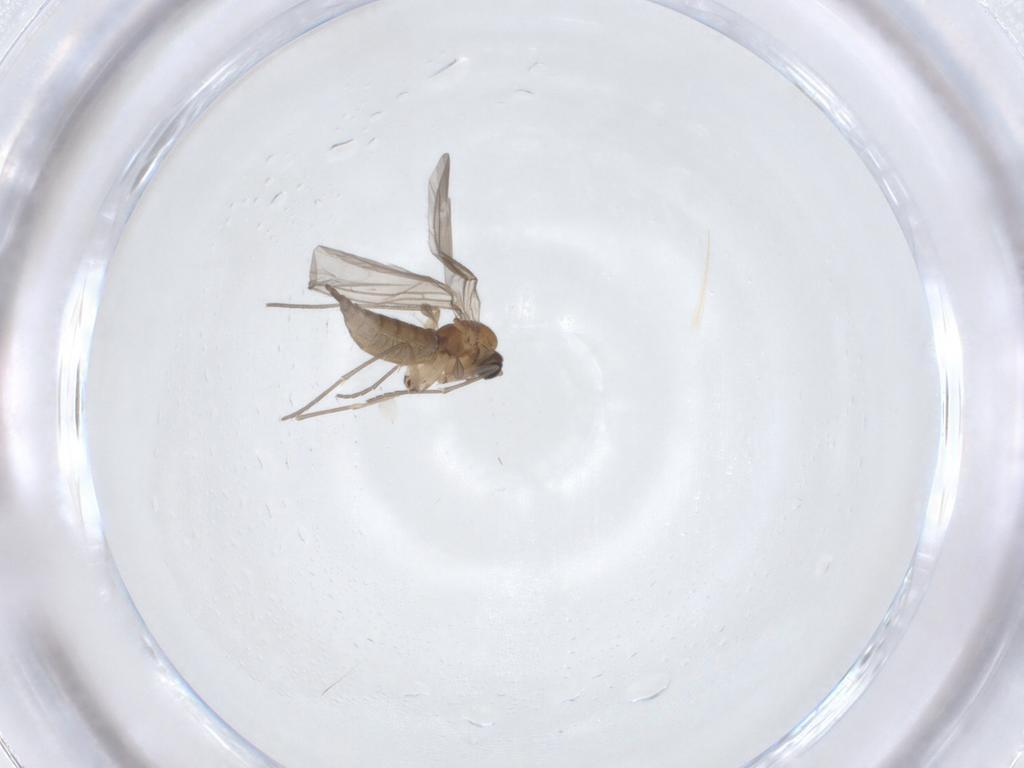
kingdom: Animalia
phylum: Arthropoda
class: Insecta
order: Diptera
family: Sciaridae
